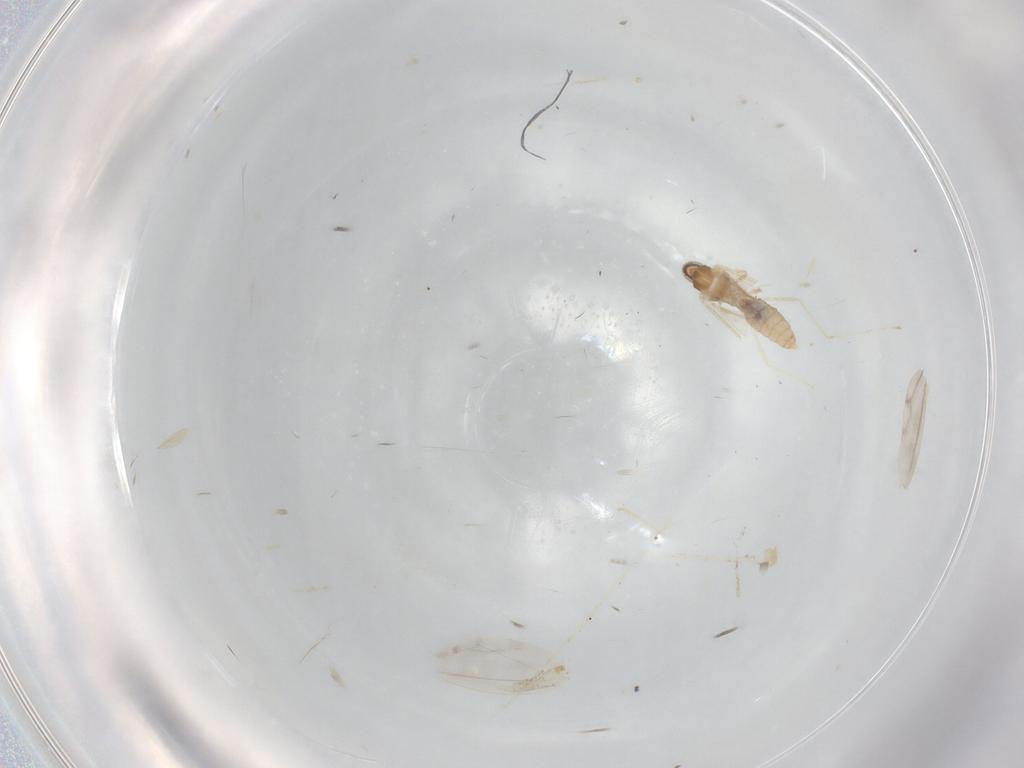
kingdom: Animalia
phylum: Arthropoda
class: Insecta
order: Diptera
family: Cecidomyiidae
